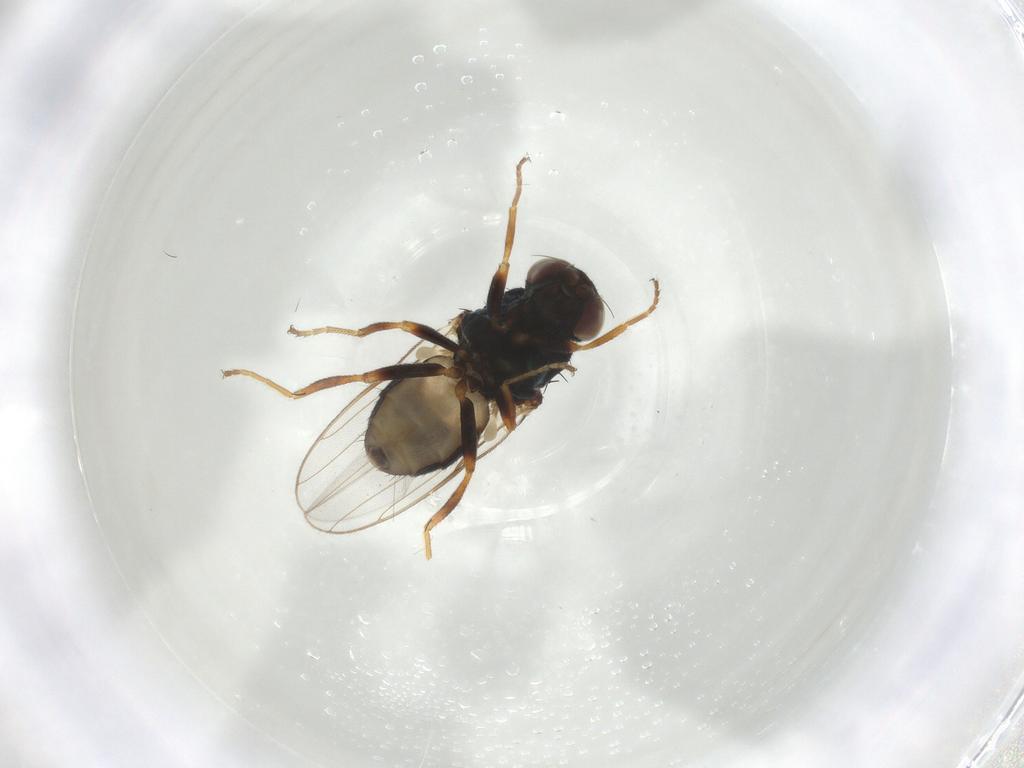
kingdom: Animalia
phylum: Arthropoda
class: Insecta
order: Diptera
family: Chloropidae
